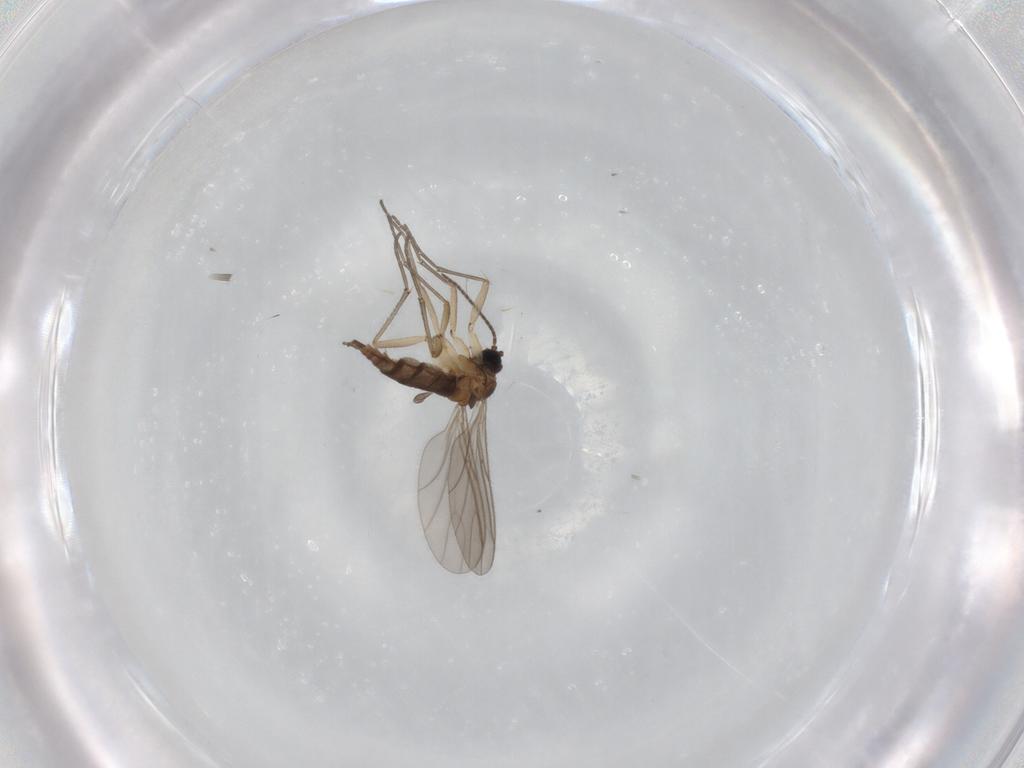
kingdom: Animalia
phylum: Arthropoda
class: Insecta
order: Diptera
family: Sciaridae
